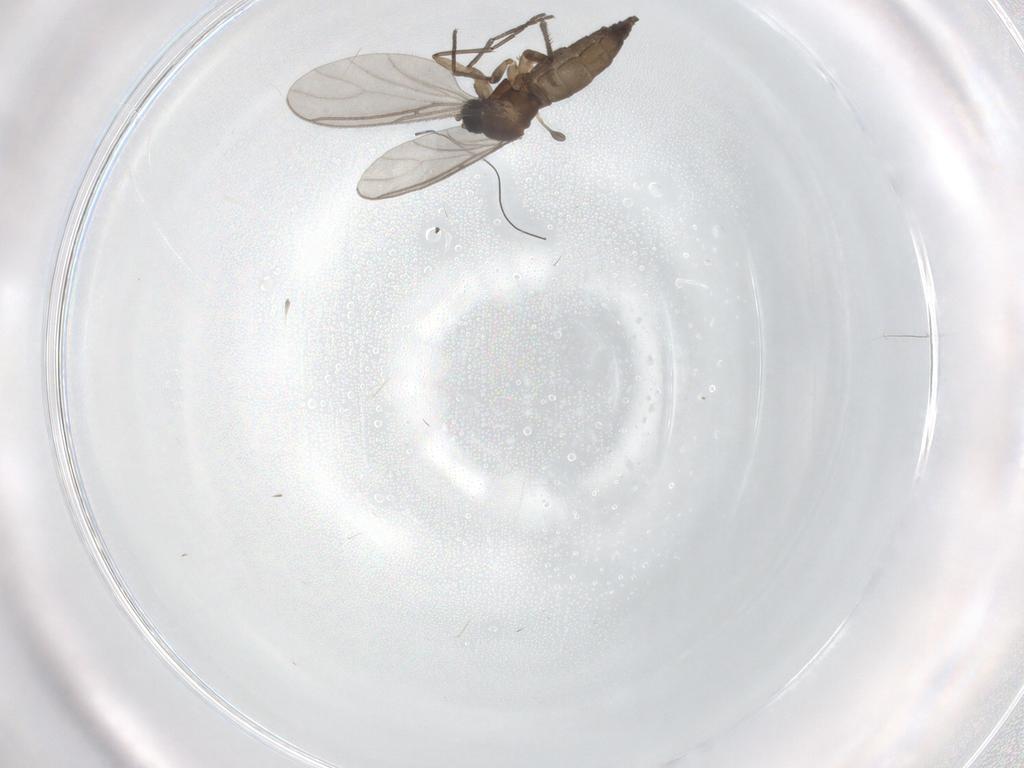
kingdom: Animalia
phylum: Arthropoda
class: Insecta
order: Diptera
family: Sciaridae
